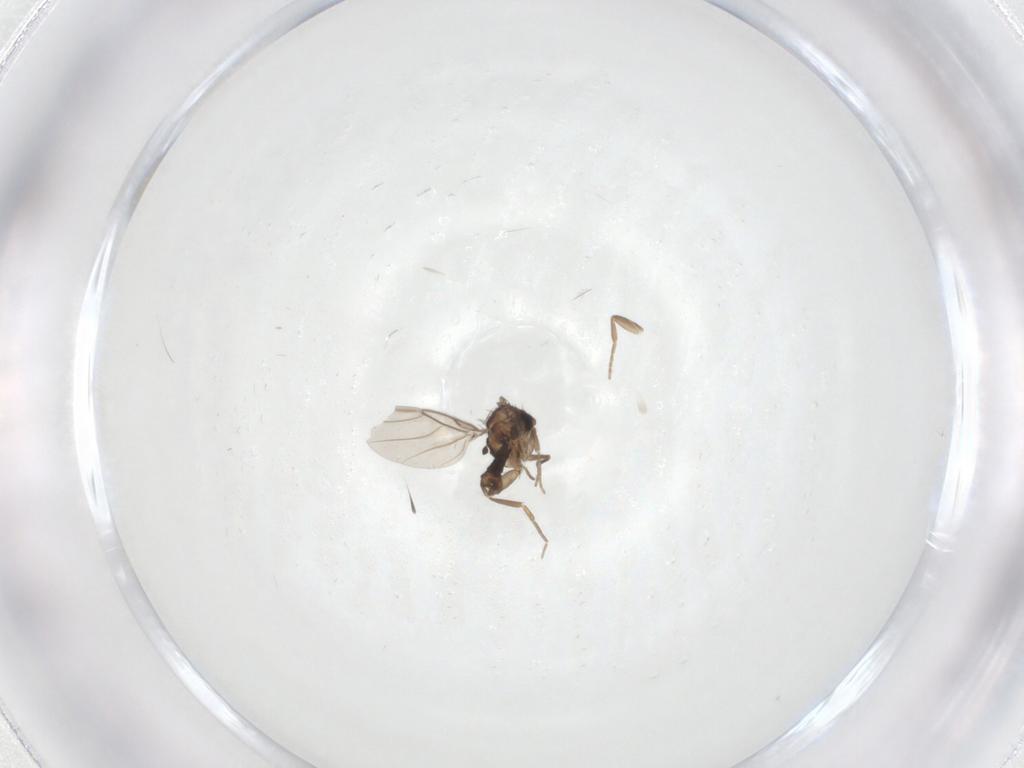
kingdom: Animalia
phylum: Arthropoda
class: Insecta
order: Diptera
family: Phoridae
